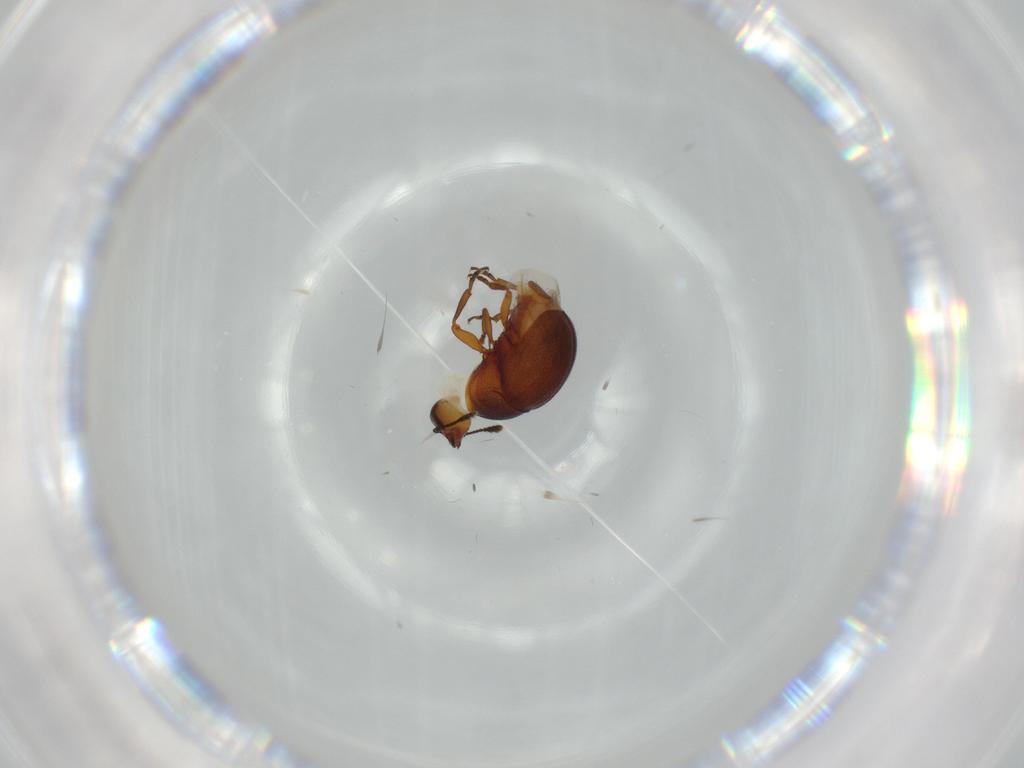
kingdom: Animalia
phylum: Arthropoda
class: Insecta
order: Coleoptera
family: Anthribidae
